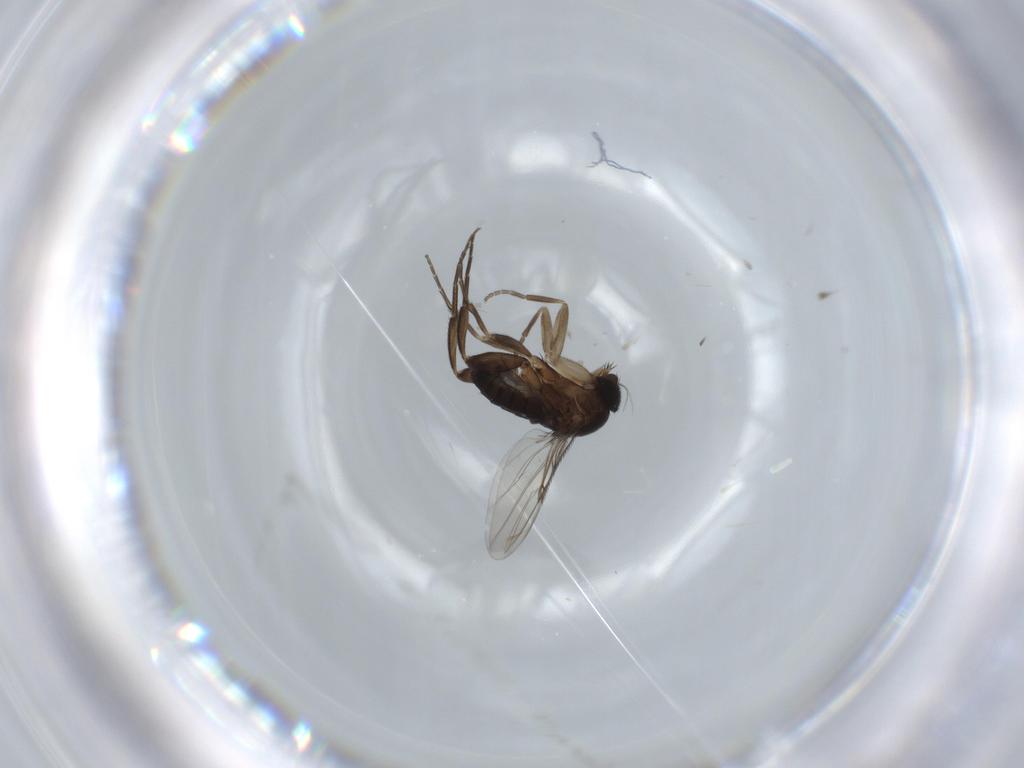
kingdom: Animalia
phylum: Arthropoda
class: Insecta
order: Diptera
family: Phoridae
